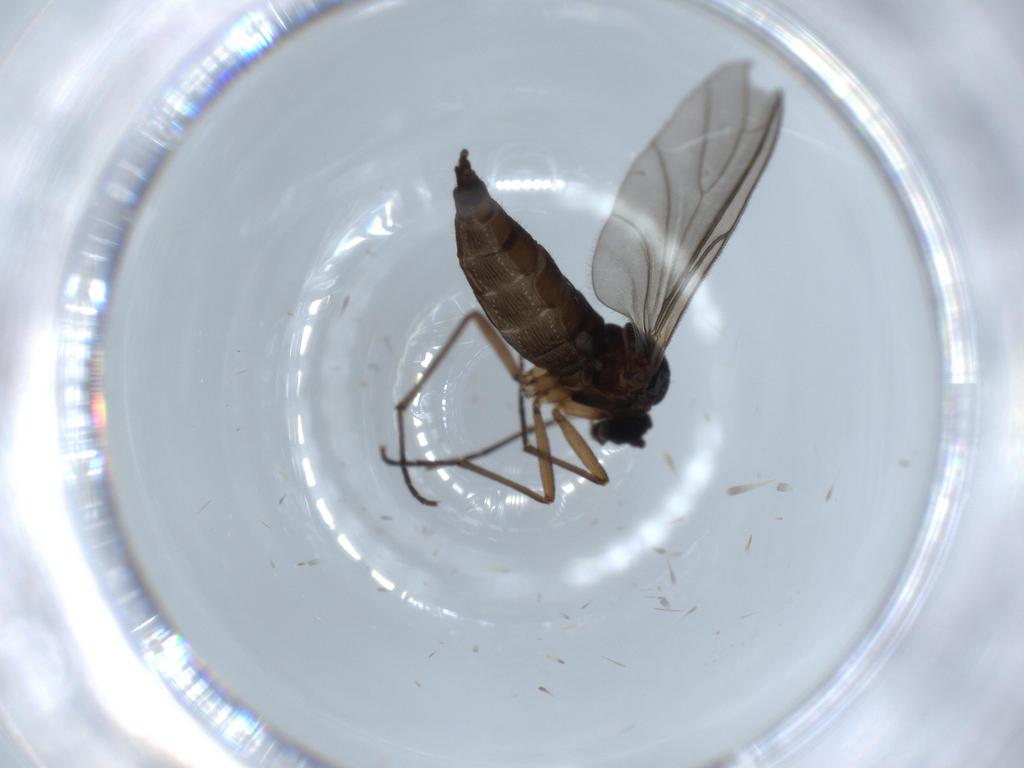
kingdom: Animalia
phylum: Arthropoda
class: Insecta
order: Diptera
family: Sciaridae
